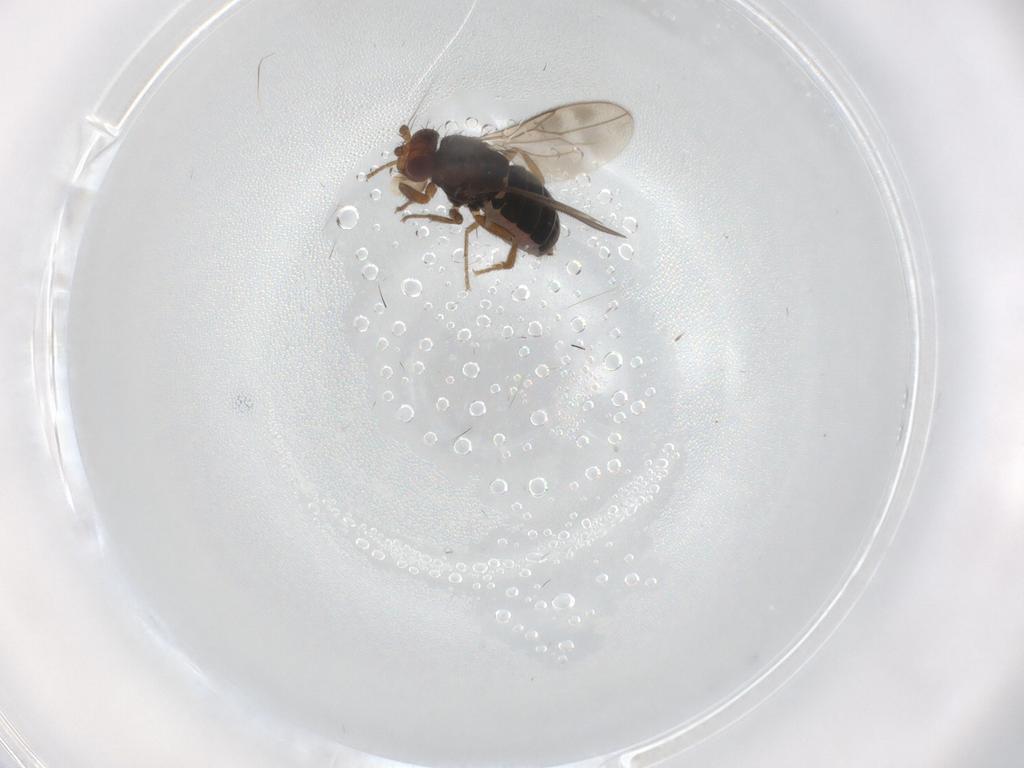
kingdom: Animalia
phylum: Arthropoda
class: Insecta
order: Diptera
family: Sphaeroceridae
